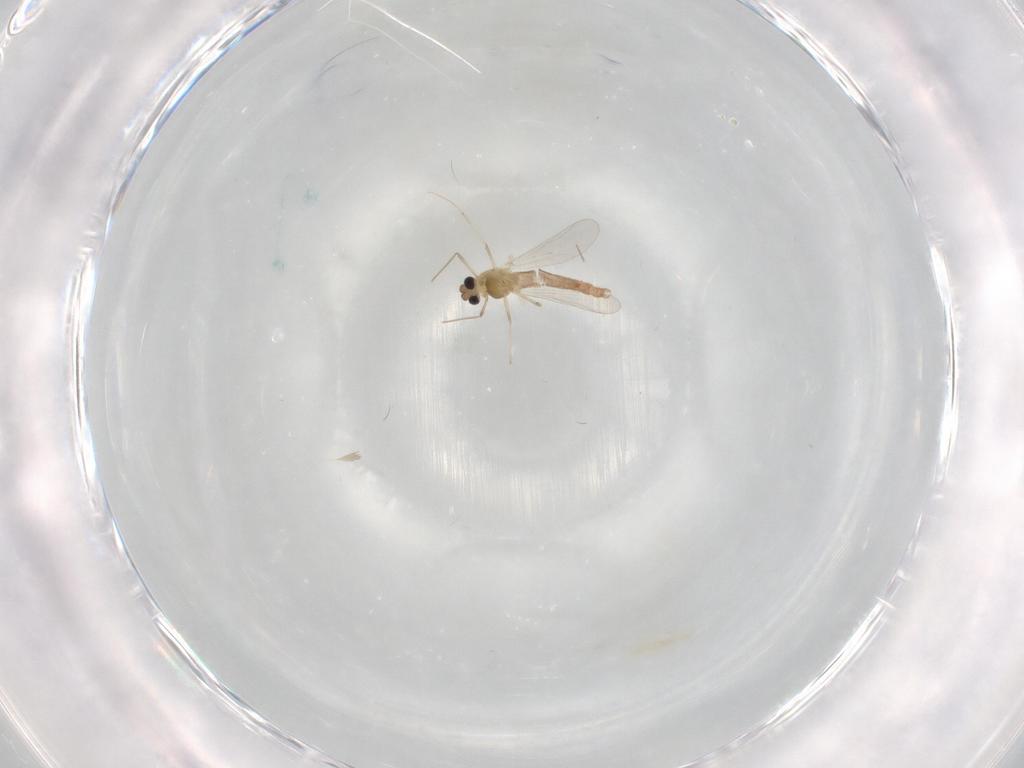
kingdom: Animalia
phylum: Arthropoda
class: Insecta
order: Diptera
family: Chironomidae
